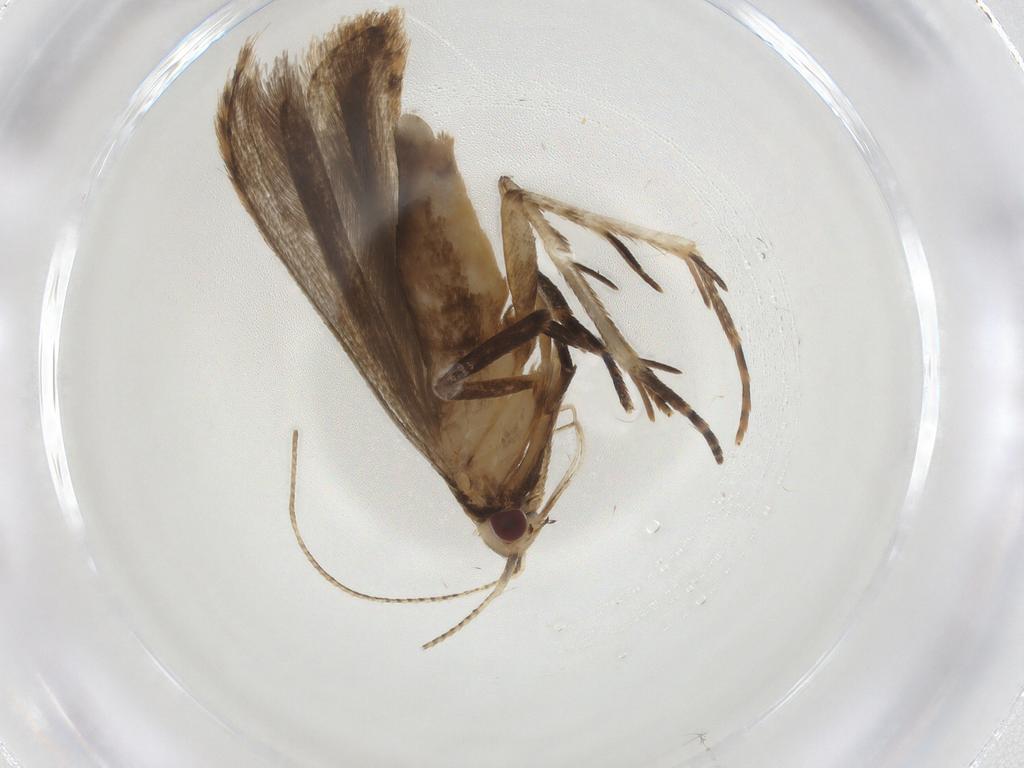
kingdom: Animalia
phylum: Arthropoda
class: Insecta
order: Lepidoptera
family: Gelechiidae
